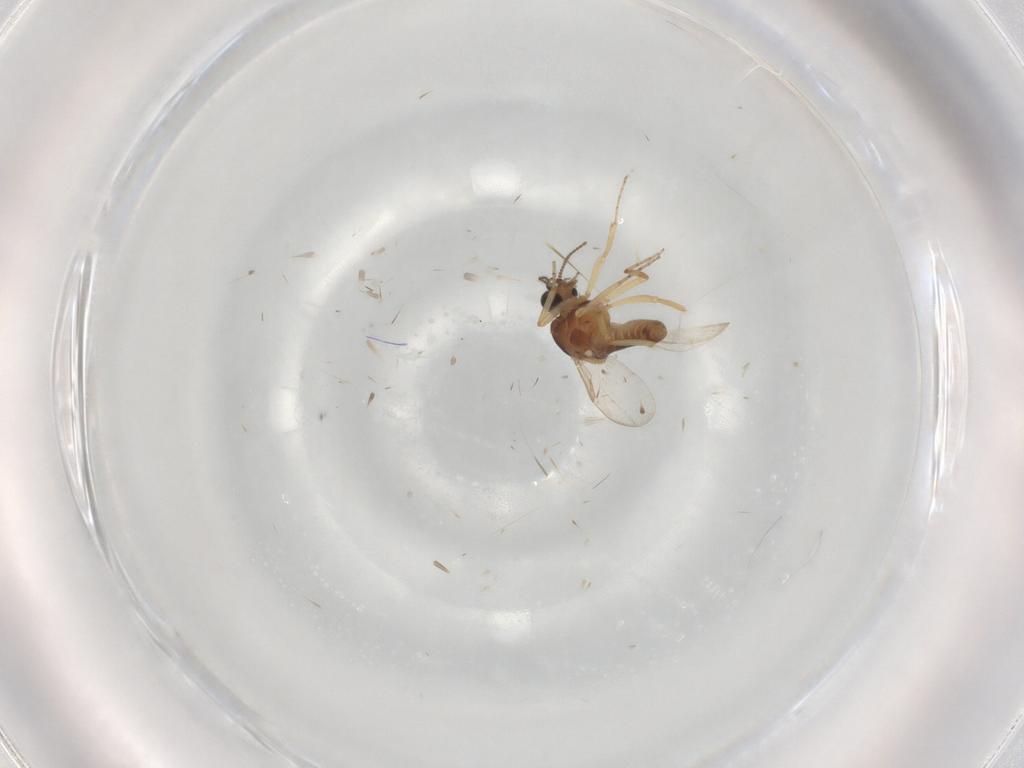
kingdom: Animalia
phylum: Arthropoda
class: Insecta
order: Diptera
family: Ceratopogonidae
